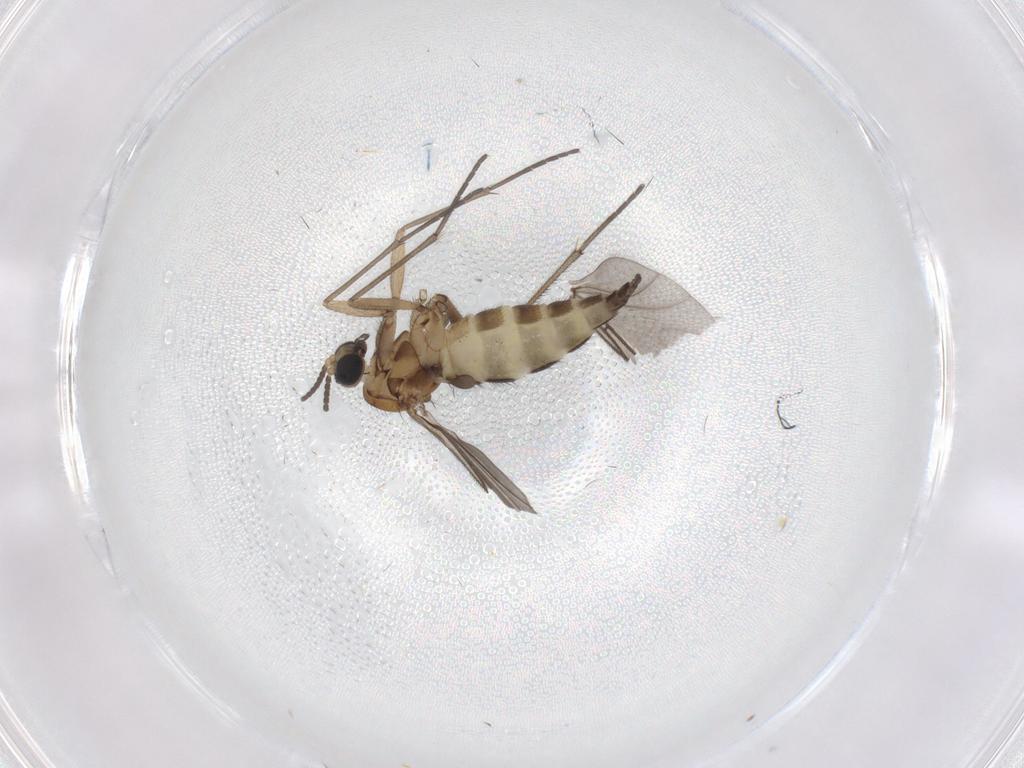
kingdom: Animalia
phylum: Arthropoda
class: Insecta
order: Diptera
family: Sciaridae
